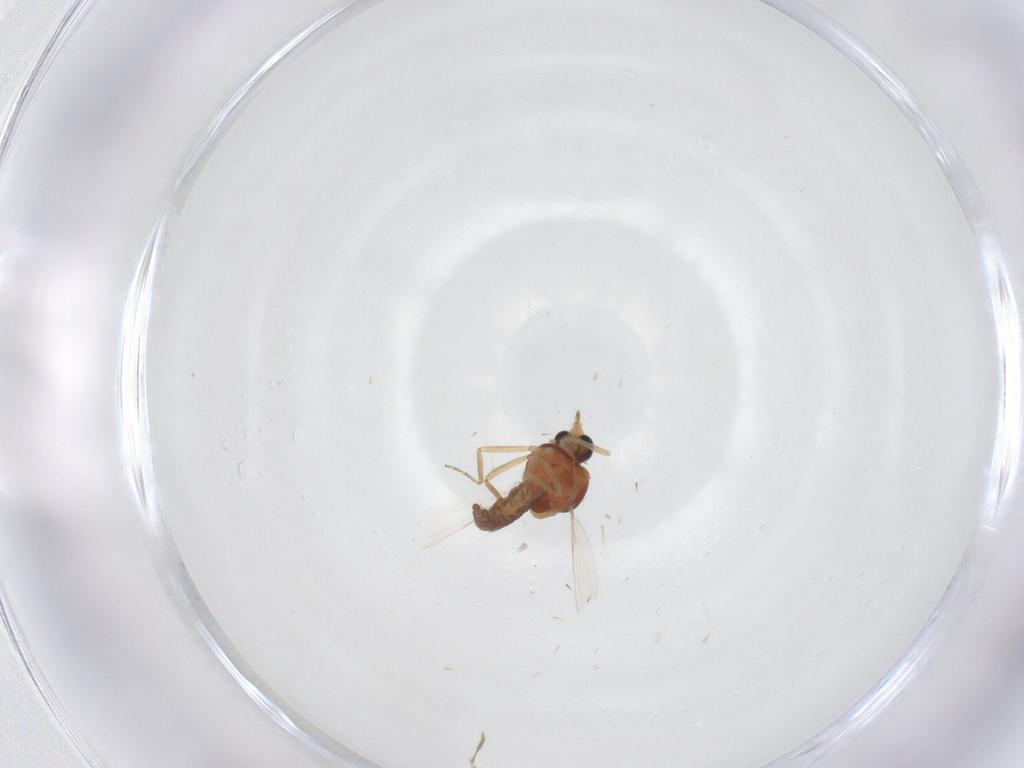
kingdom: Animalia
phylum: Arthropoda
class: Insecta
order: Diptera
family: Ceratopogonidae
